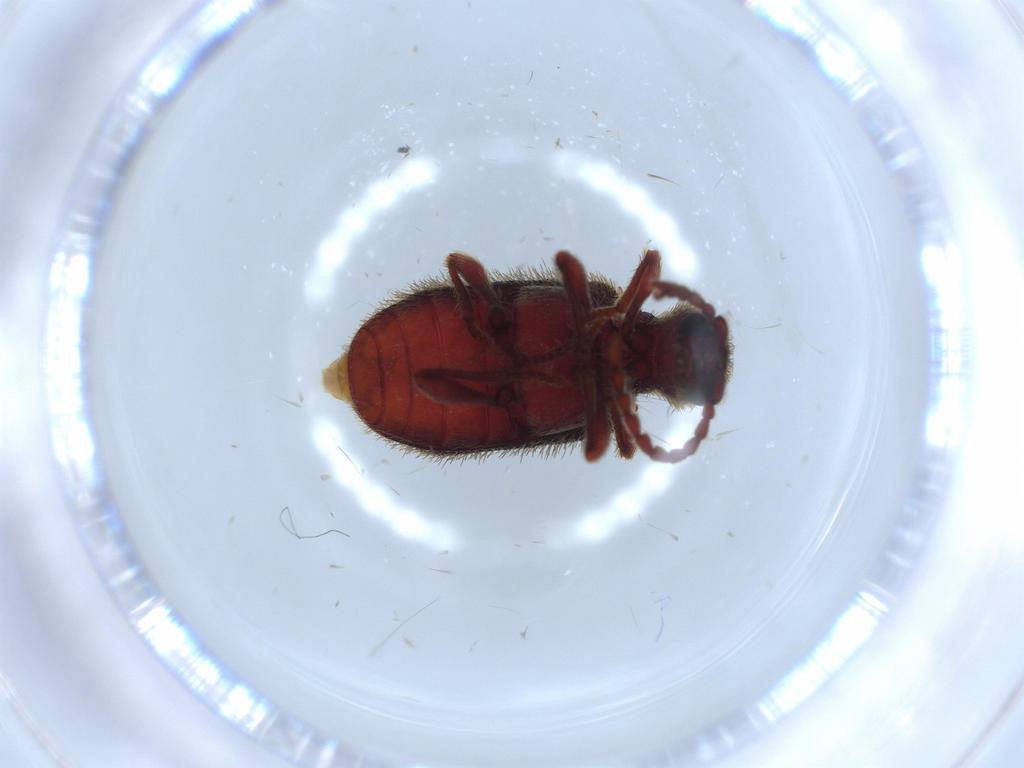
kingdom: Animalia
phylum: Arthropoda
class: Insecta
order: Coleoptera
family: Ptinidae
